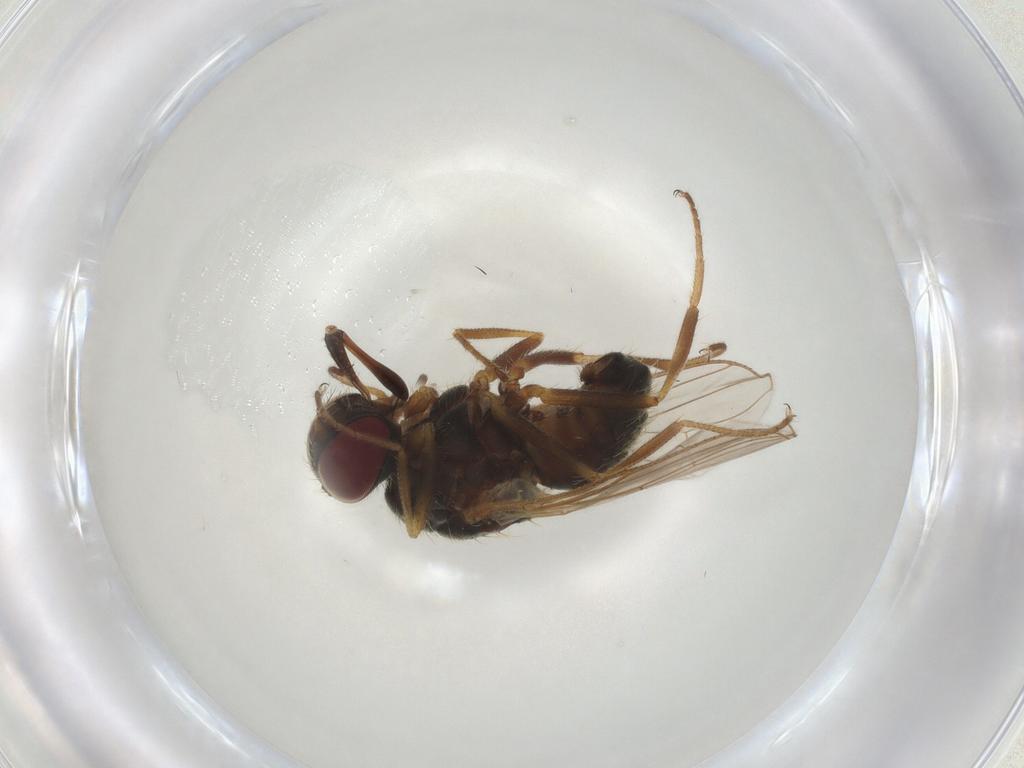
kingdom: Animalia
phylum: Arthropoda
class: Insecta
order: Diptera
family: Muscidae
